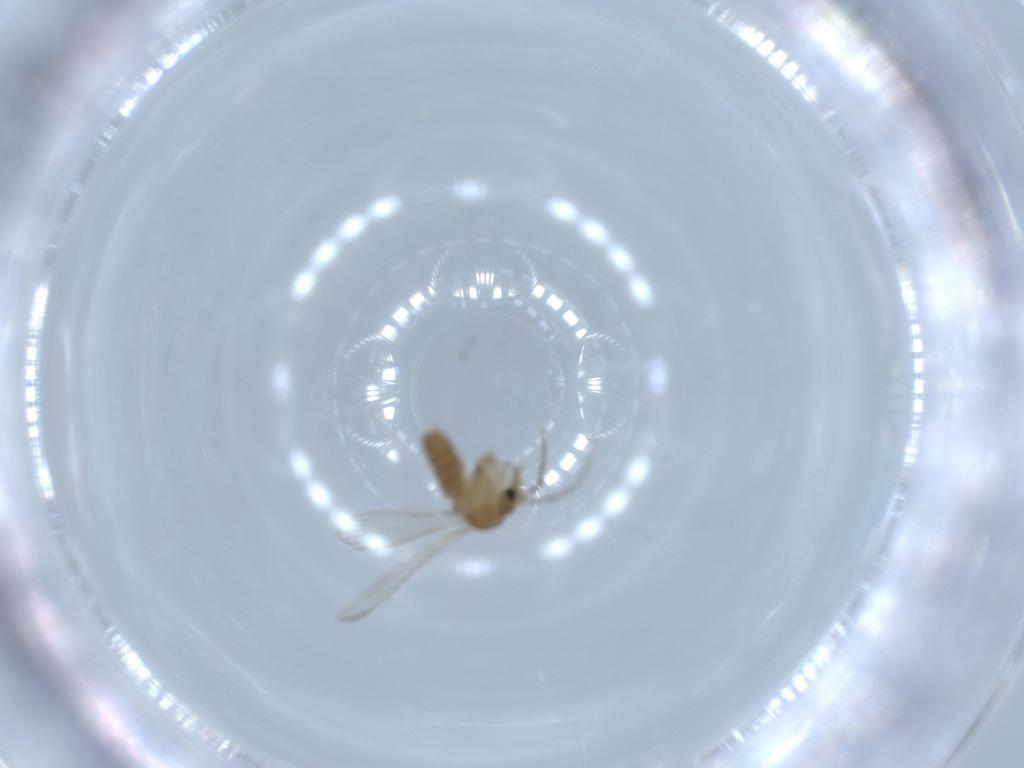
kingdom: Animalia
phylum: Arthropoda
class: Insecta
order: Diptera
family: Psychodidae
